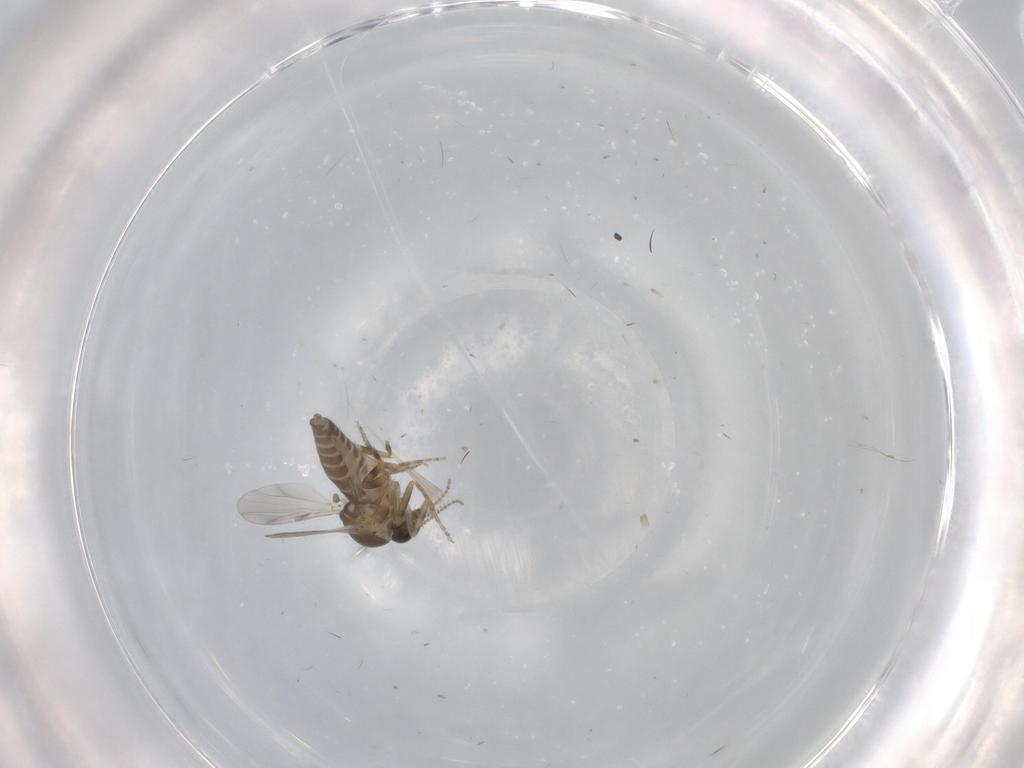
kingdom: Animalia
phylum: Arthropoda
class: Insecta
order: Diptera
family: Ceratopogonidae
